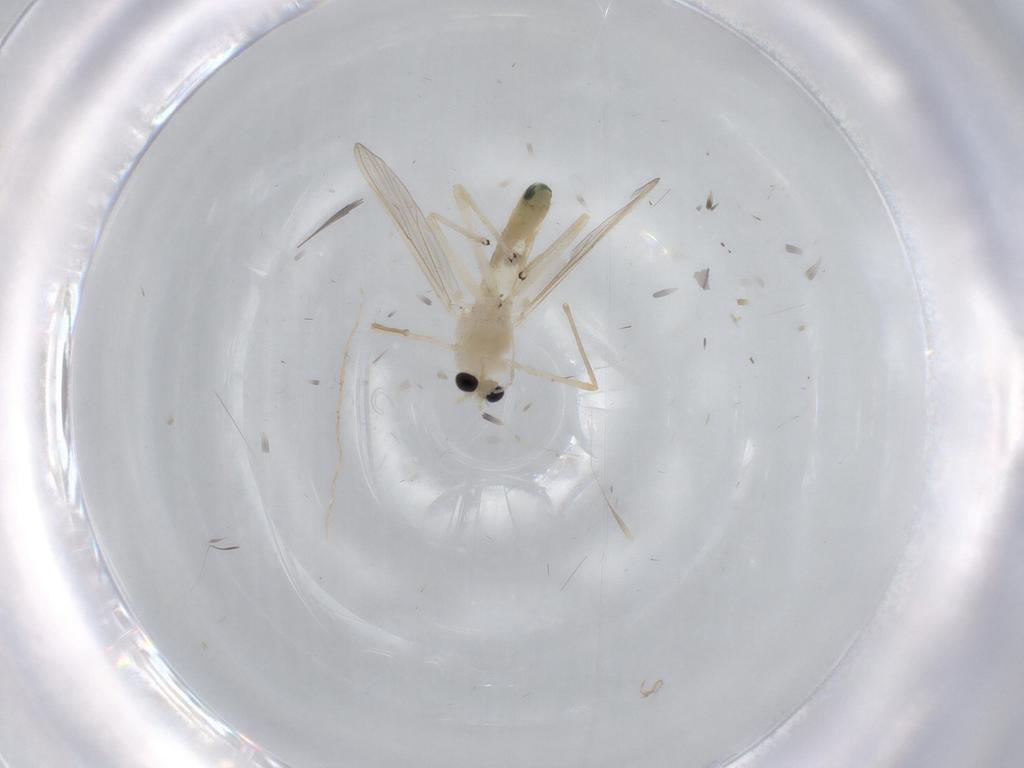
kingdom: Animalia
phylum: Arthropoda
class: Insecta
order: Diptera
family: Chironomidae
